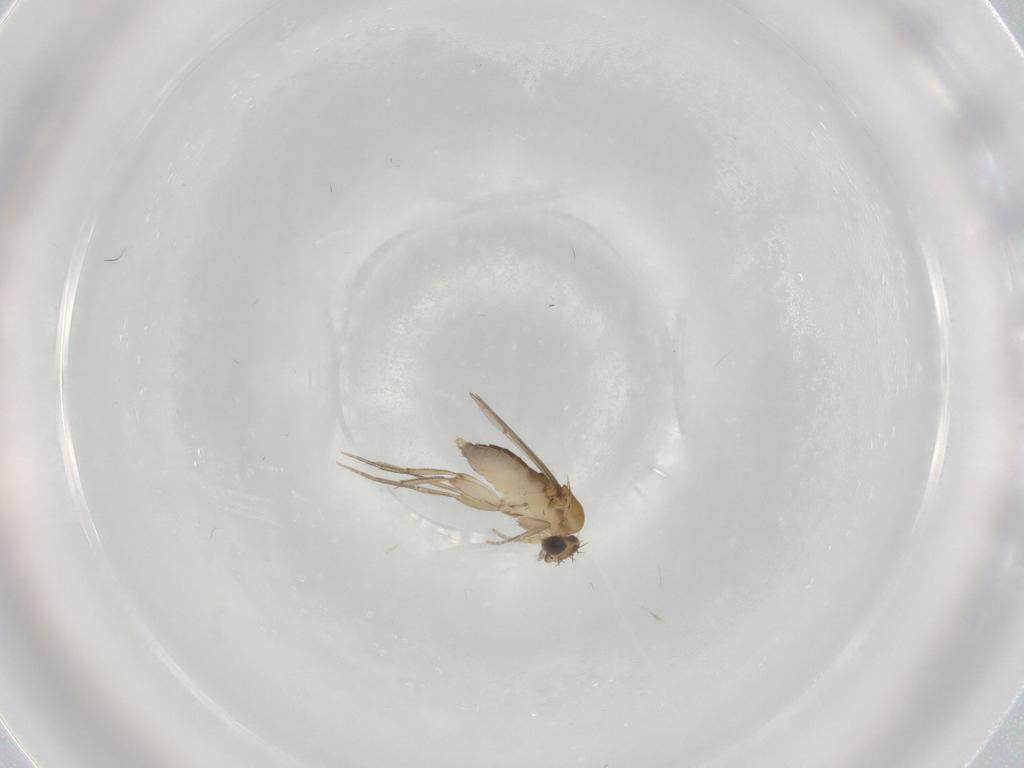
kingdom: Animalia
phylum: Arthropoda
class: Insecta
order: Diptera
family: Phoridae
